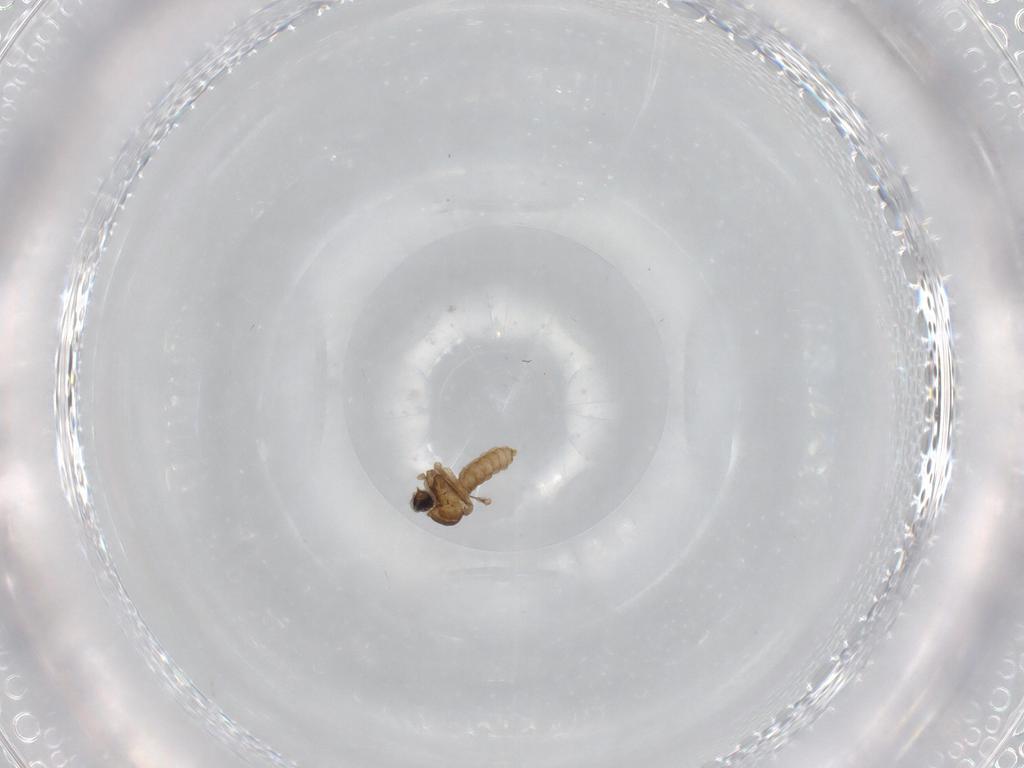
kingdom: Animalia
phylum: Arthropoda
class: Insecta
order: Diptera
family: Cecidomyiidae
